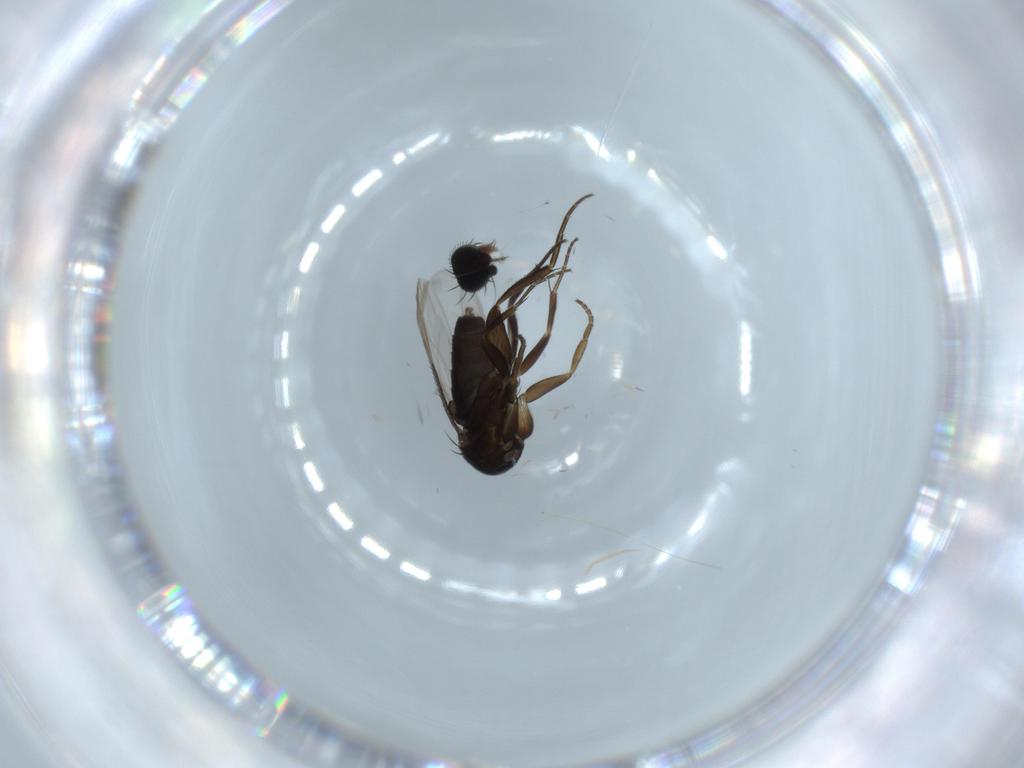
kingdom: Animalia
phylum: Arthropoda
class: Insecta
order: Diptera
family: Phoridae
